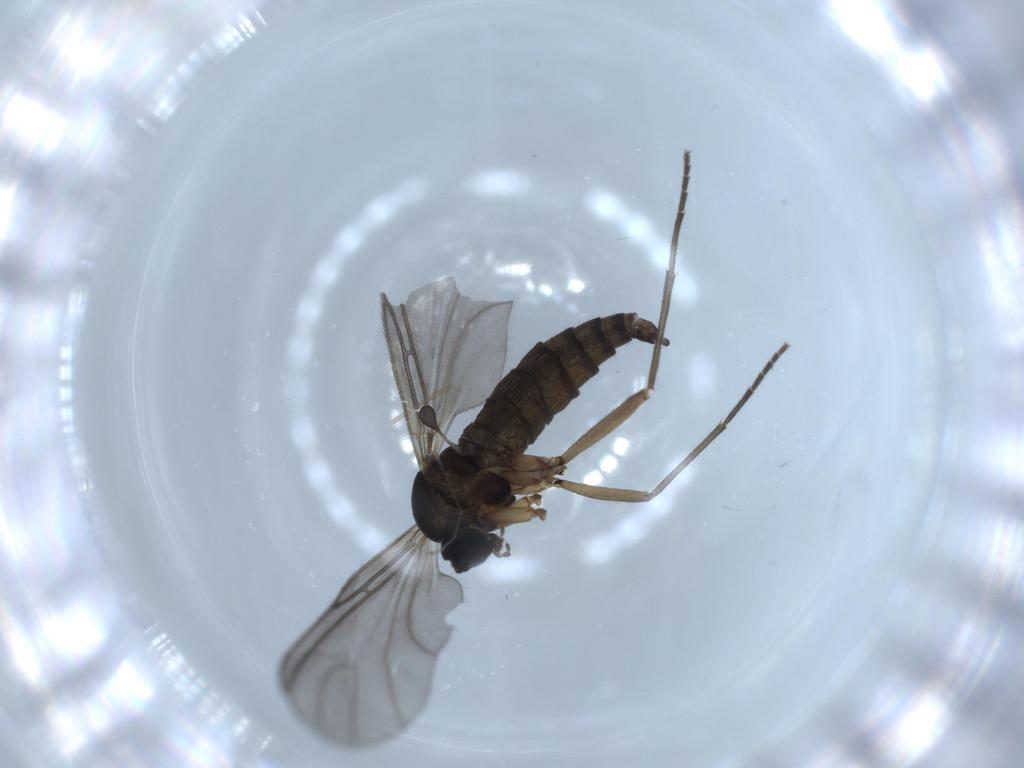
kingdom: Animalia
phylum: Arthropoda
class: Insecta
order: Diptera
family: Sciaridae
